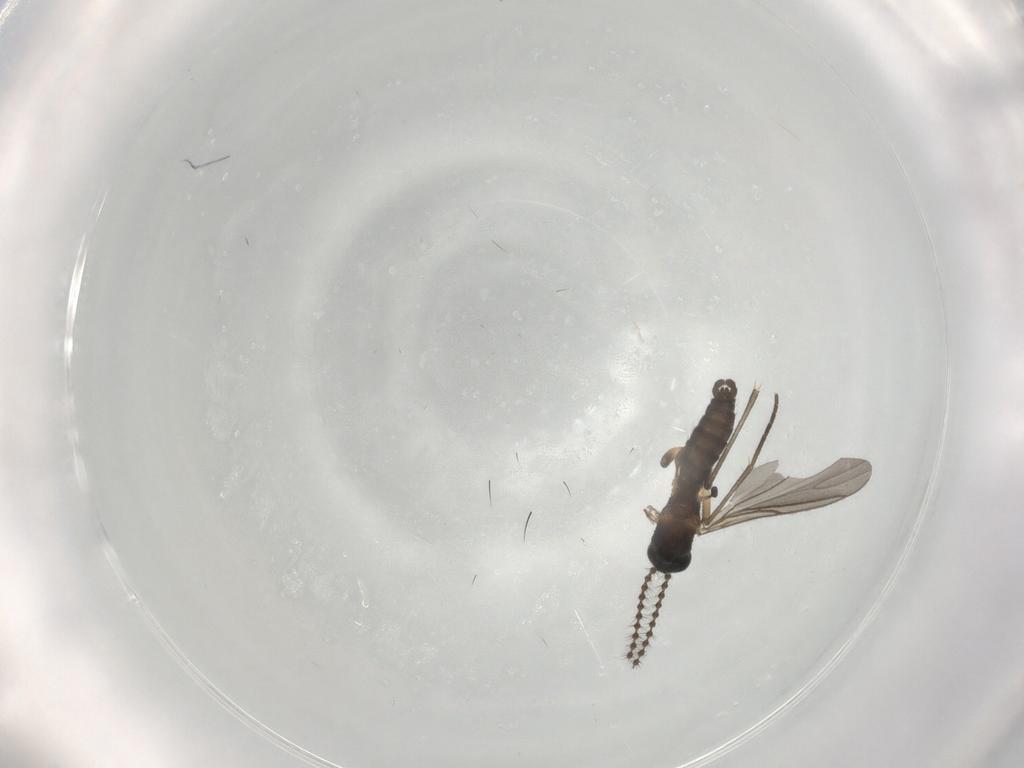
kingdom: Animalia
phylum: Arthropoda
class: Insecta
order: Diptera
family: Sciaridae
